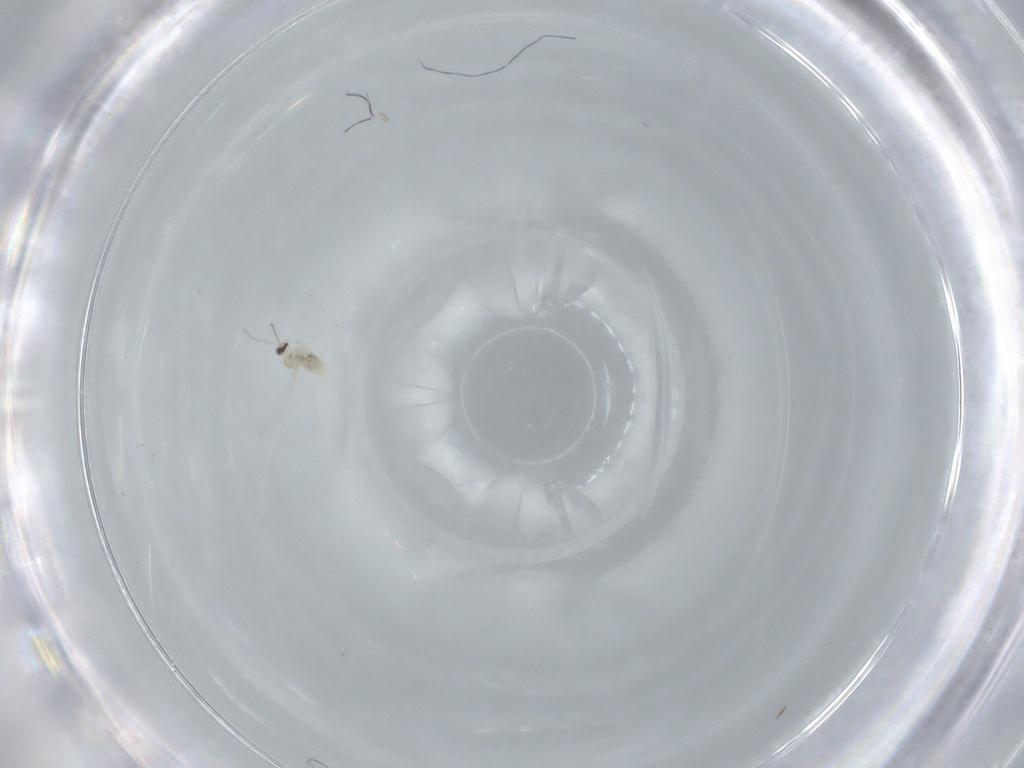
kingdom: Animalia
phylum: Arthropoda
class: Insecta
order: Diptera
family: Cecidomyiidae
